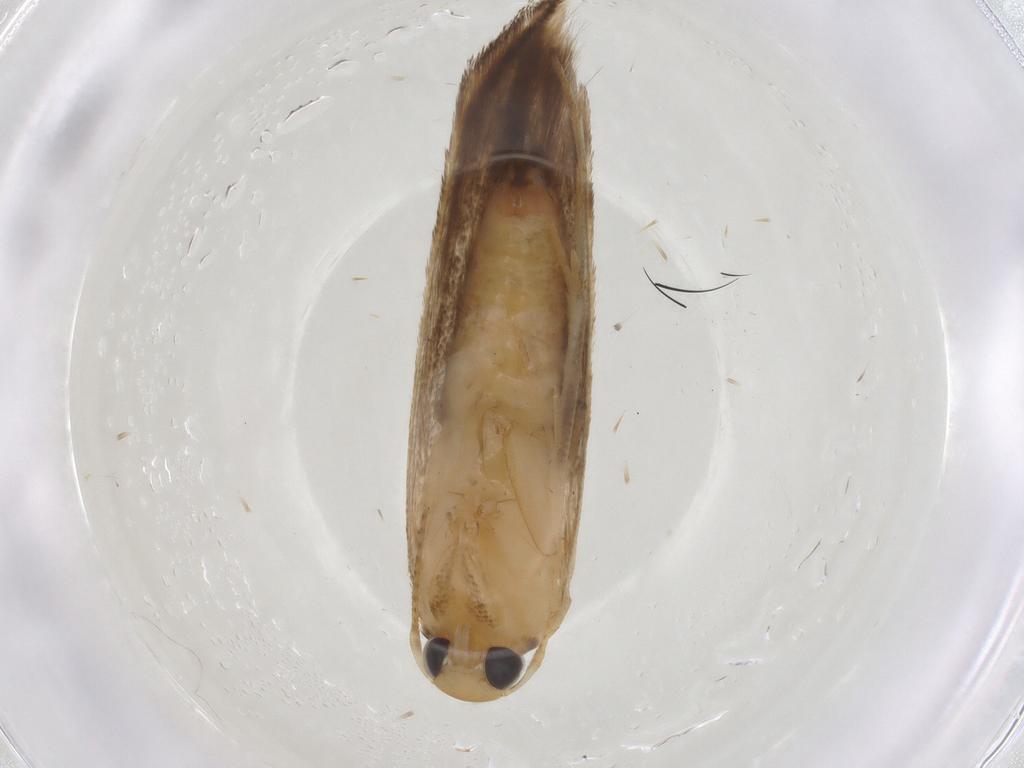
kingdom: Animalia
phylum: Arthropoda
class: Insecta
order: Lepidoptera
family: Momphidae
